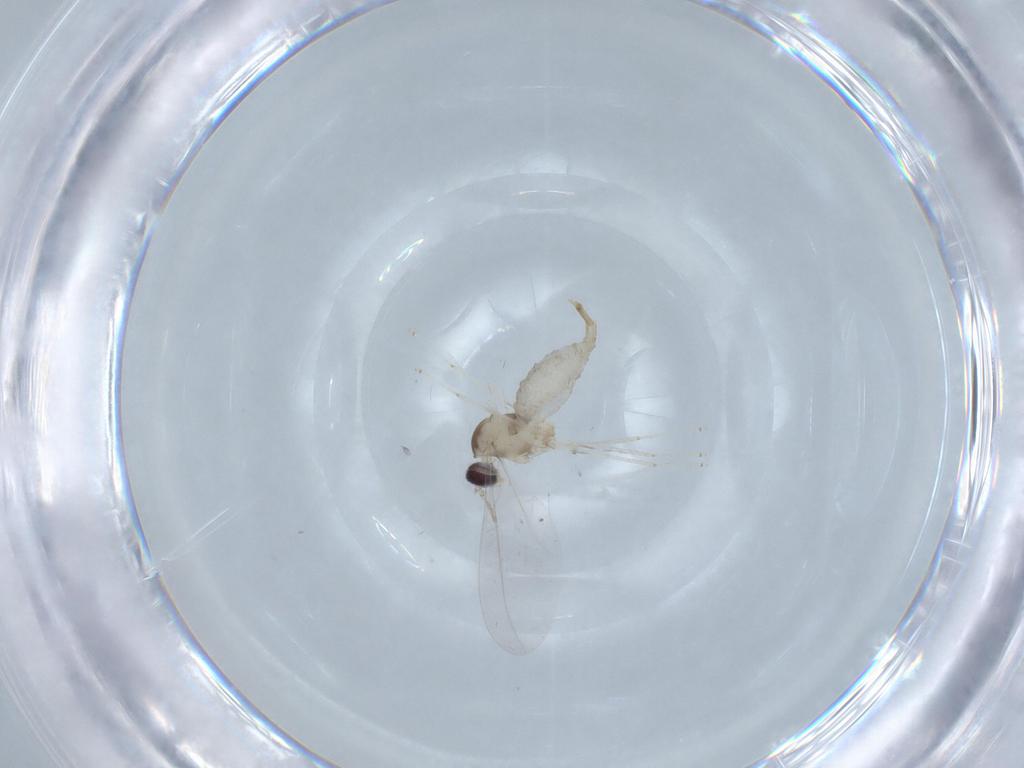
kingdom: Animalia
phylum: Arthropoda
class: Insecta
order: Diptera
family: Cecidomyiidae
